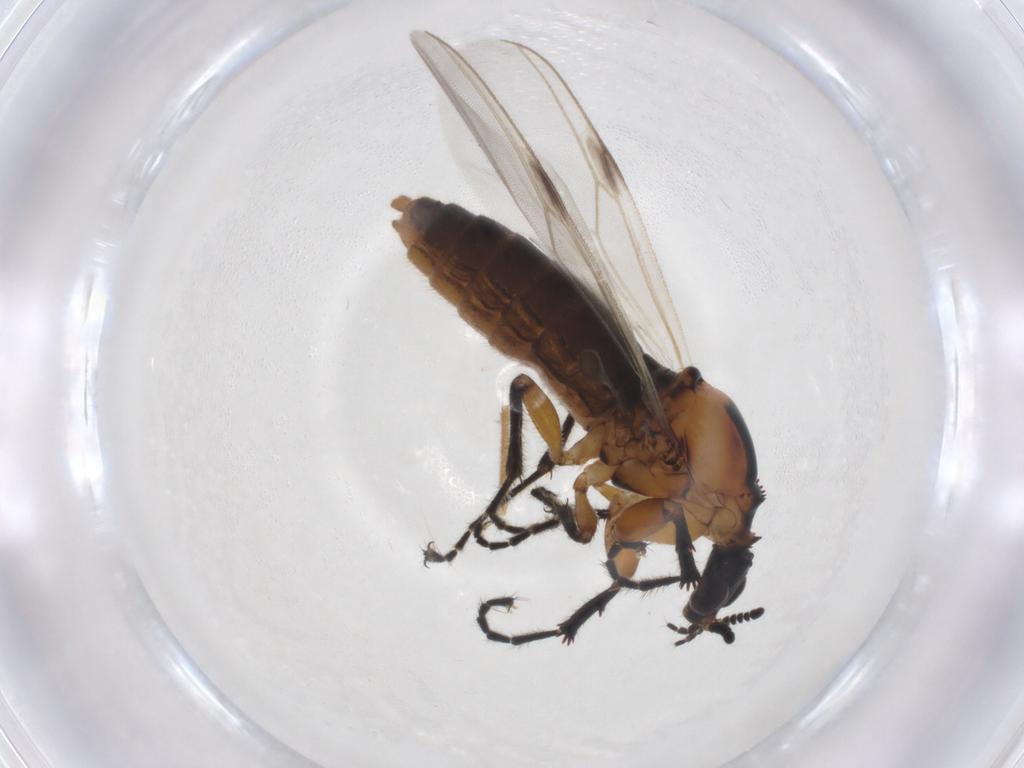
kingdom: Animalia
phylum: Arthropoda
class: Insecta
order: Diptera
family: Bibionidae
